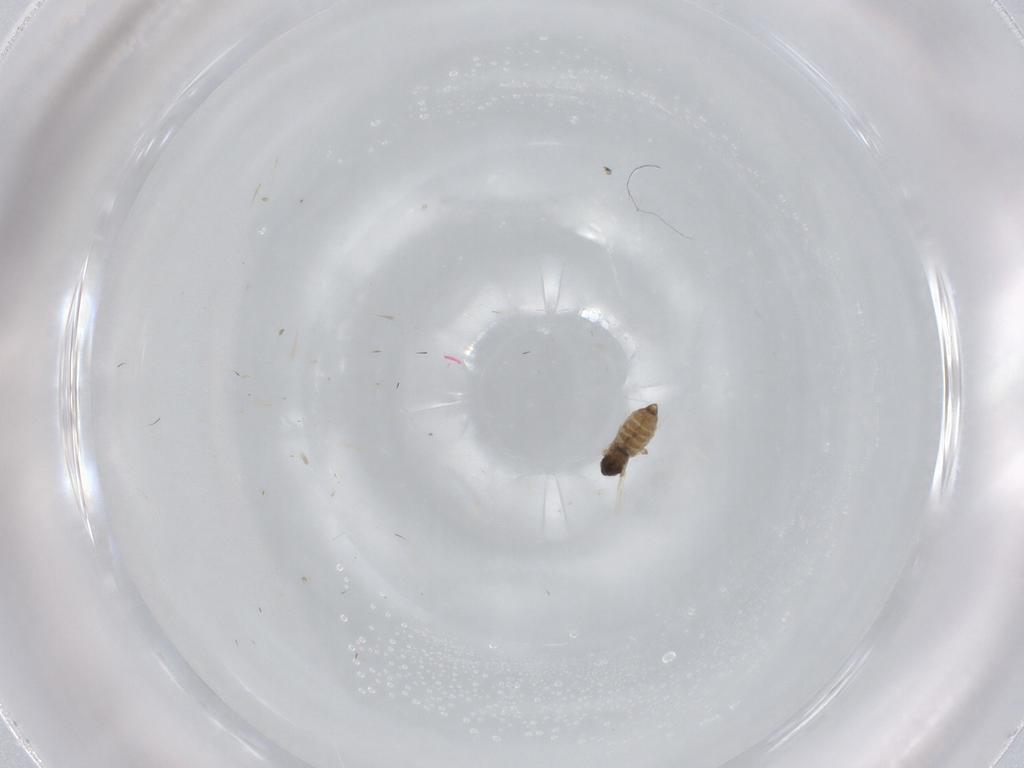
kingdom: Animalia
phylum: Arthropoda
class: Insecta
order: Diptera
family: Cecidomyiidae
